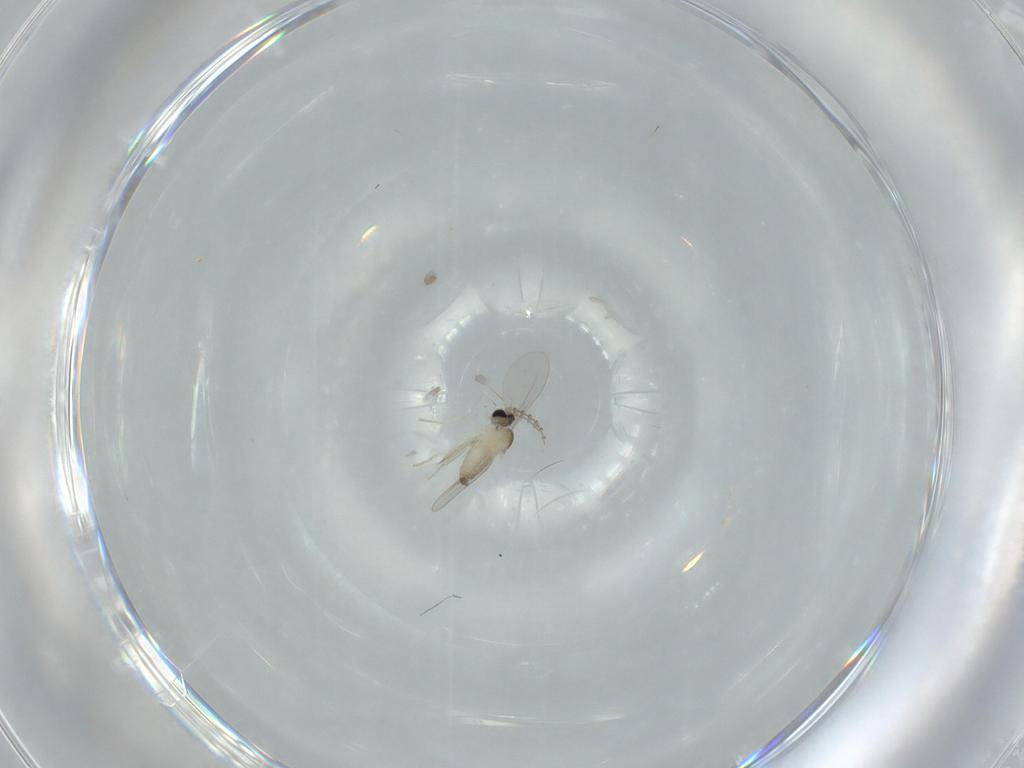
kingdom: Animalia
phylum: Arthropoda
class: Insecta
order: Diptera
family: Cecidomyiidae
